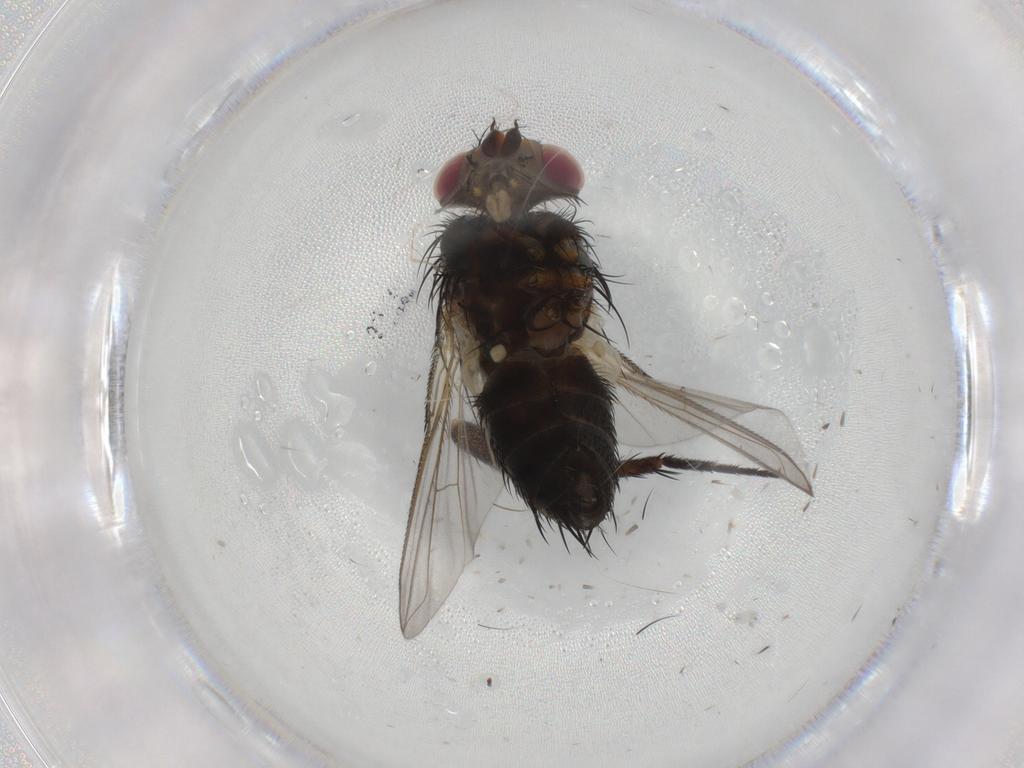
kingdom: Animalia
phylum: Arthropoda
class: Insecta
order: Diptera
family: Tachinidae
